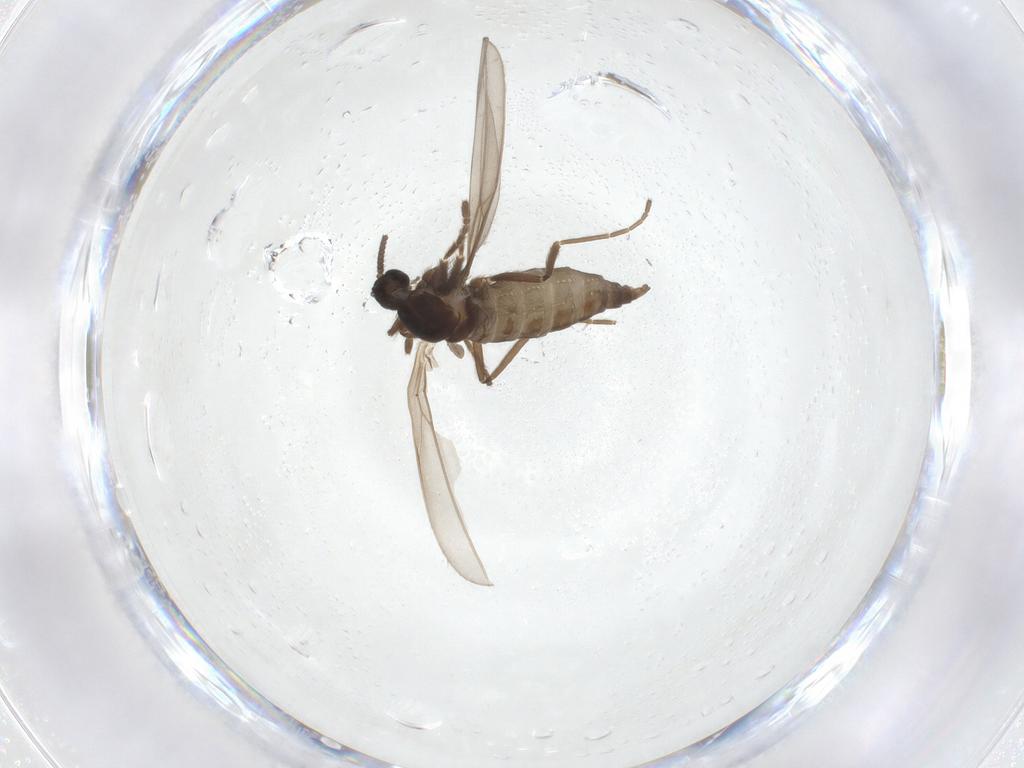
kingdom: Animalia
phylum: Arthropoda
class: Insecta
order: Diptera
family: Cecidomyiidae
